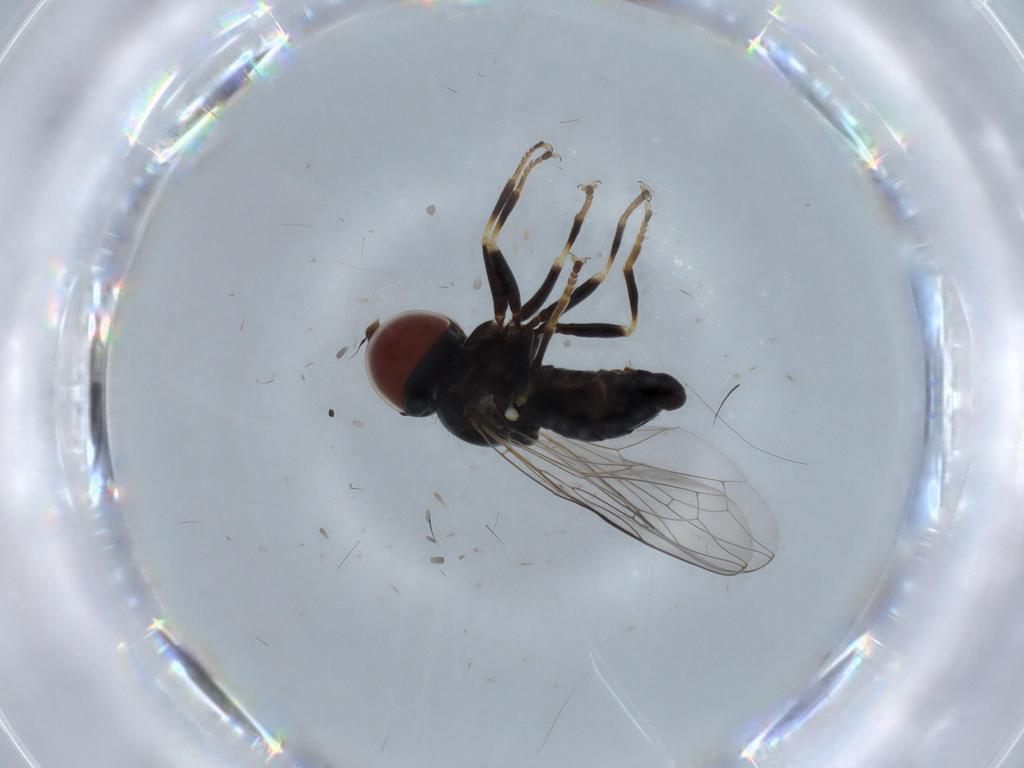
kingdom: Animalia
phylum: Arthropoda
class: Insecta
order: Diptera
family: Pipunculidae
